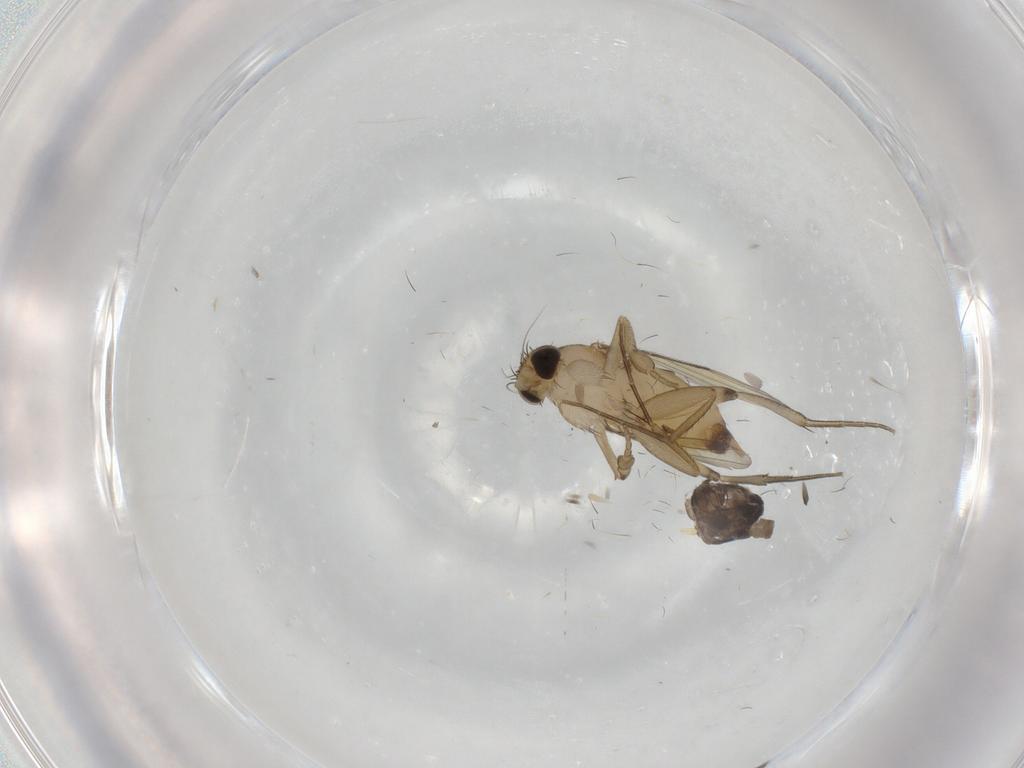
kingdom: Animalia
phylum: Arthropoda
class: Insecta
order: Diptera
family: Phoridae
